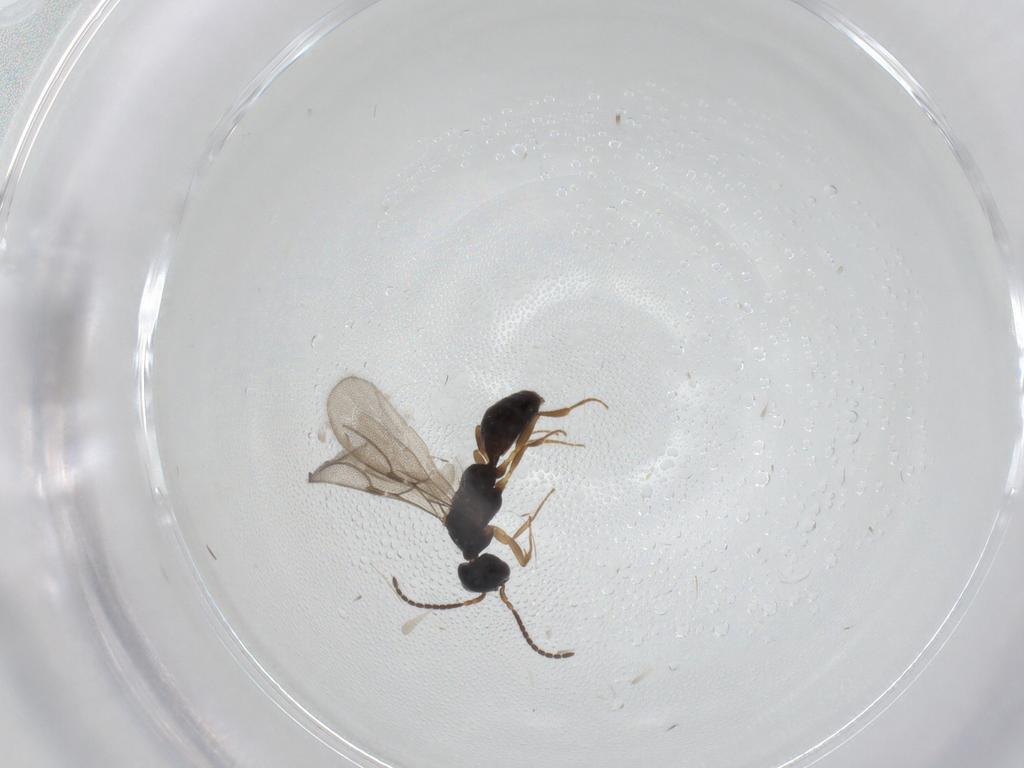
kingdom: Animalia
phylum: Arthropoda
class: Insecta
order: Hymenoptera
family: Bethylidae
